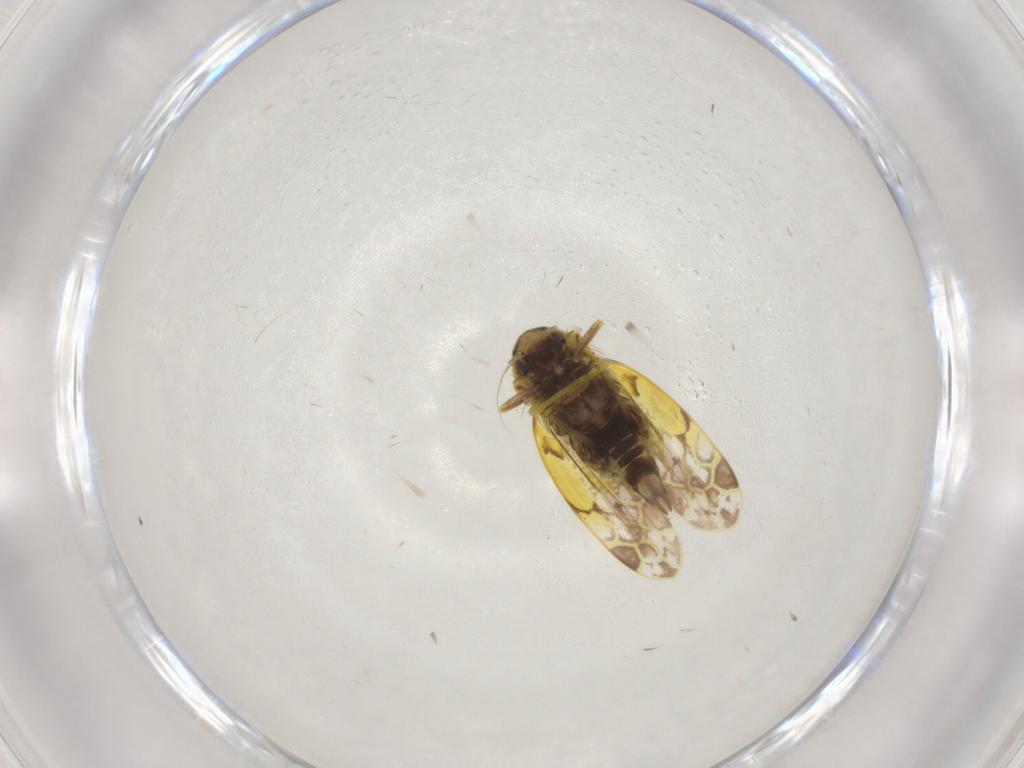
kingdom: Animalia
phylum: Arthropoda
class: Insecta
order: Hemiptera
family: Cicadellidae
